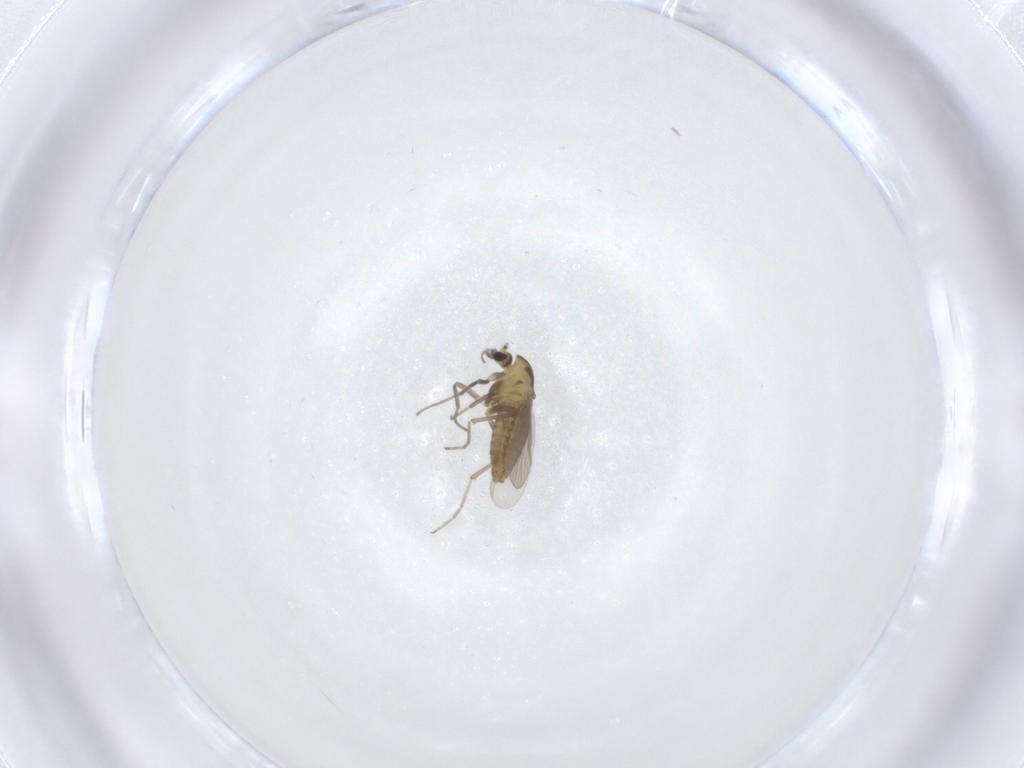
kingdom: Animalia
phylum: Arthropoda
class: Insecta
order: Diptera
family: Chironomidae
